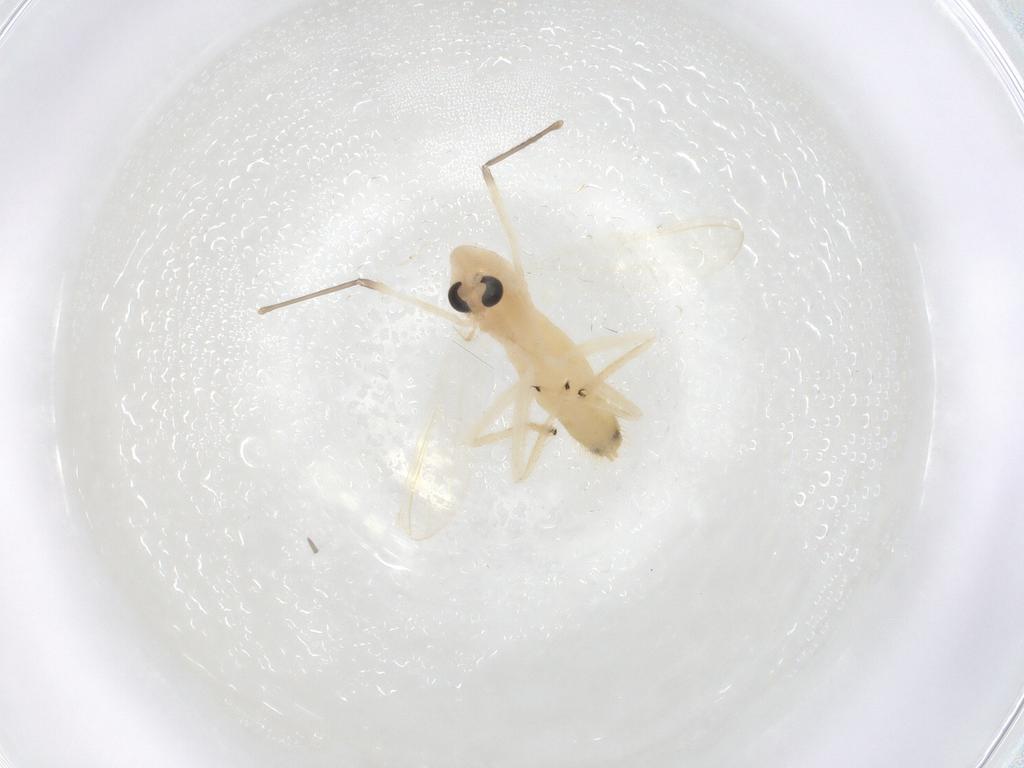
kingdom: Animalia
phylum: Arthropoda
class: Insecta
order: Diptera
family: Chironomidae
